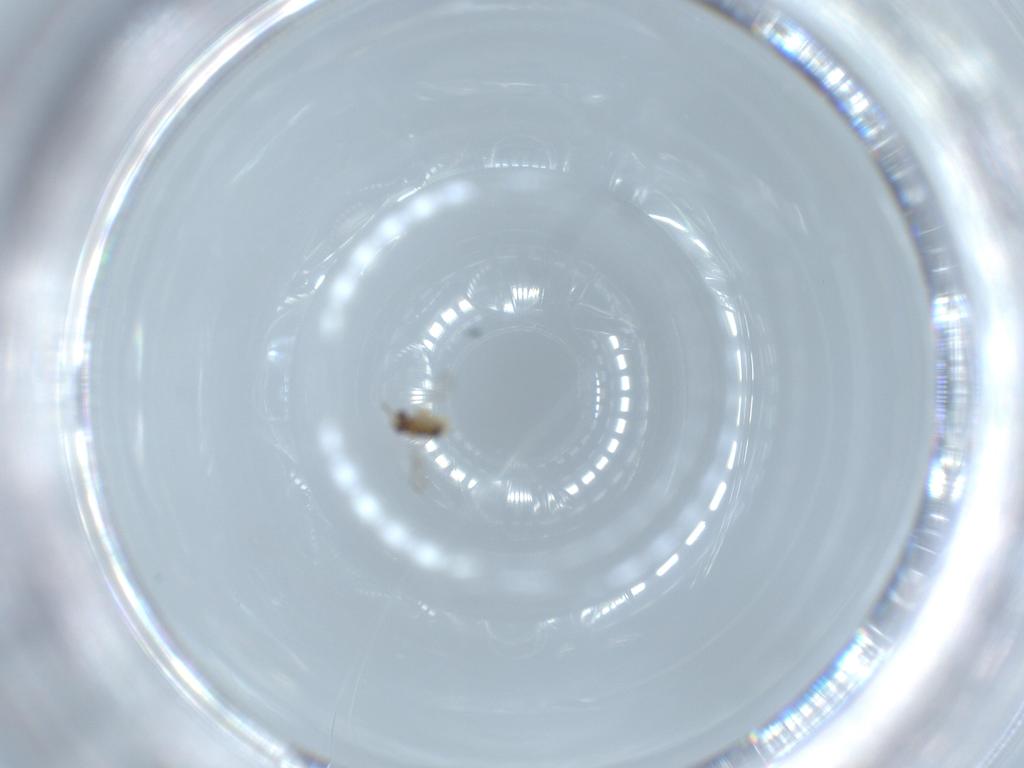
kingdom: Animalia
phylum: Arthropoda
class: Insecta
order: Hymenoptera
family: Aphelinidae
